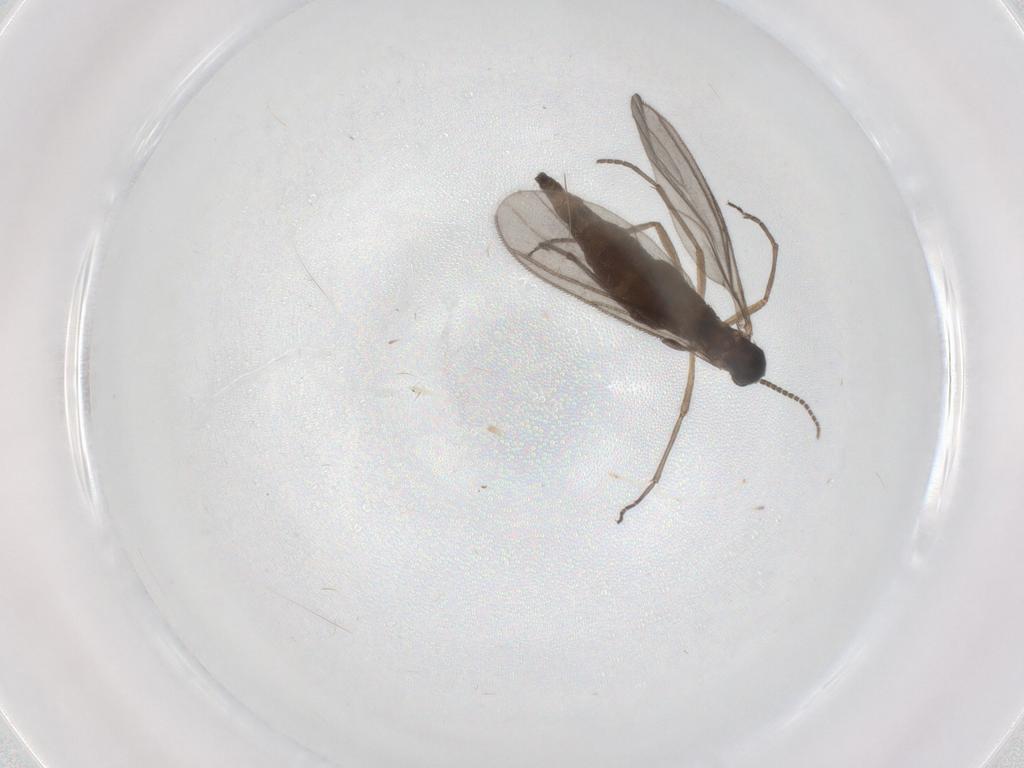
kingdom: Animalia
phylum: Arthropoda
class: Insecta
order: Diptera
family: Sciaridae
